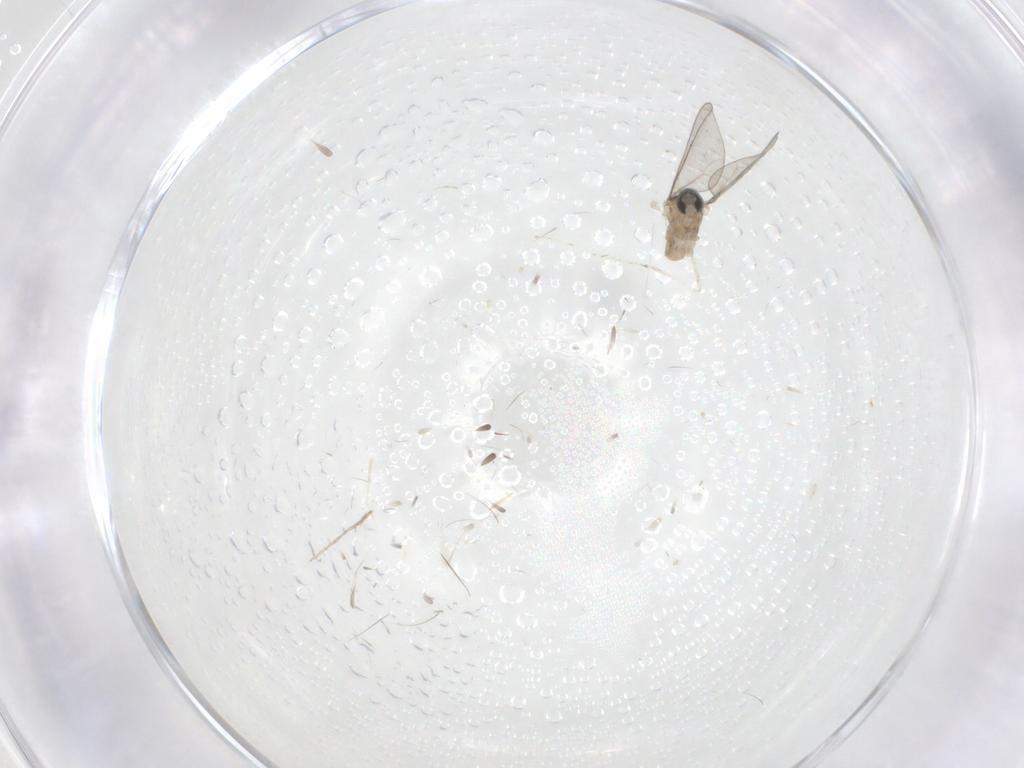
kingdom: Animalia
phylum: Arthropoda
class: Insecta
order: Diptera
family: Cecidomyiidae
